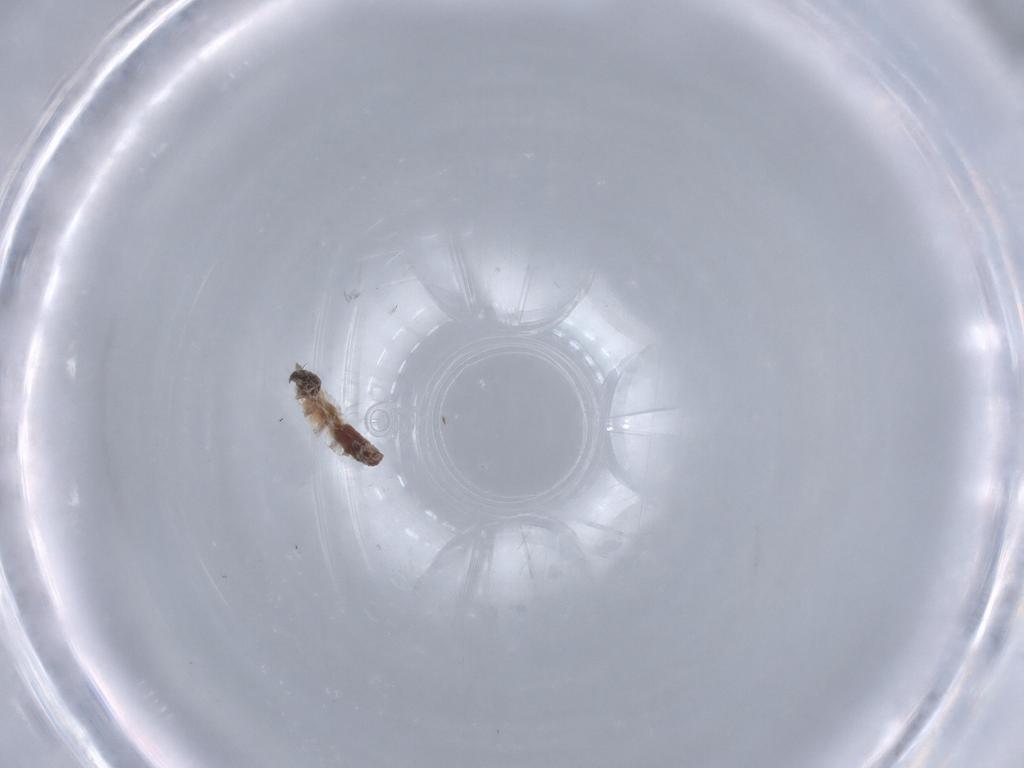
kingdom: Animalia
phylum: Arthropoda
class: Insecta
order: Diptera
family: Sarcophagidae
